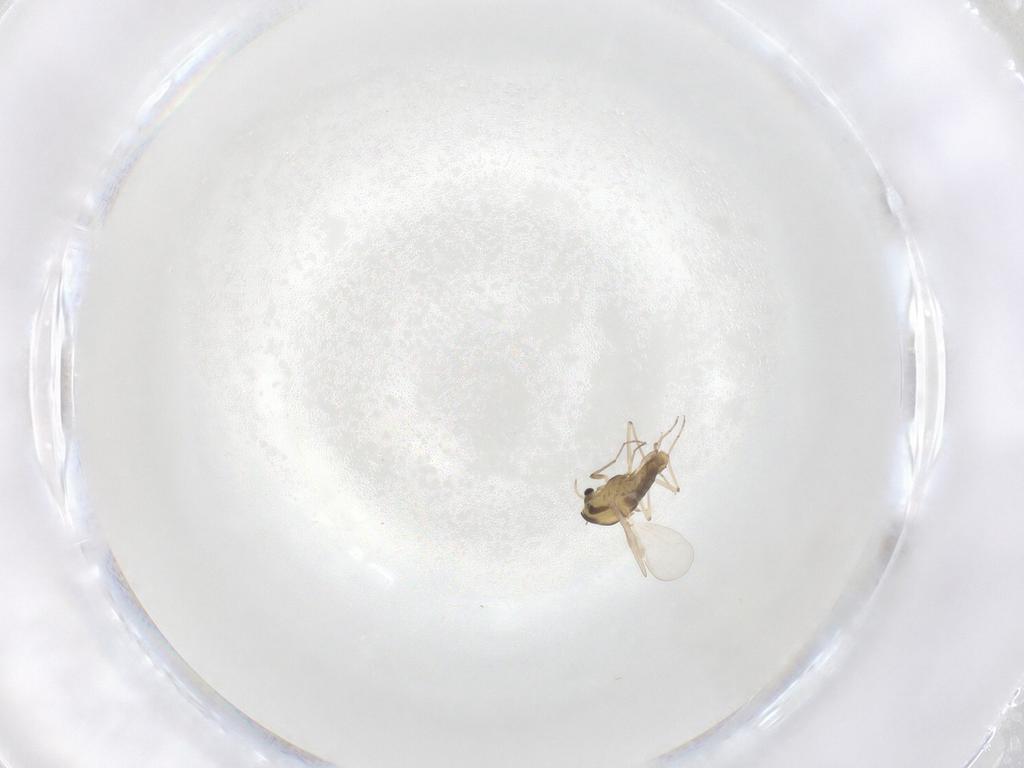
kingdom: Animalia
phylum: Arthropoda
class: Insecta
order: Diptera
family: Chironomidae
